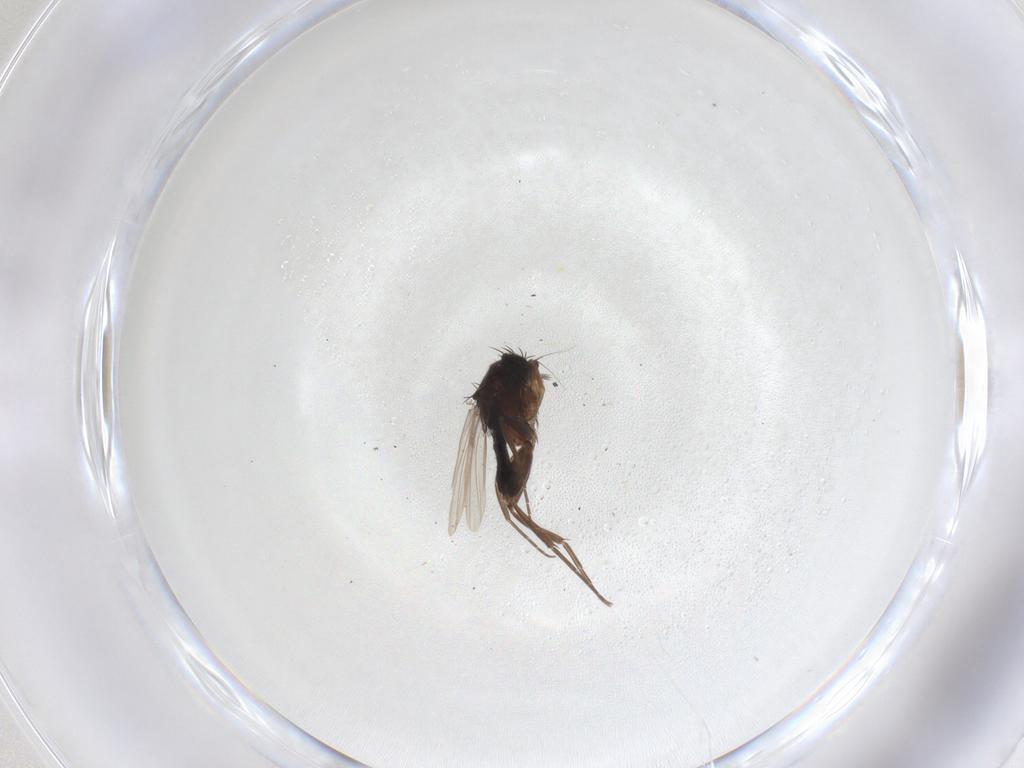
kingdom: Animalia
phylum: Arthropoda
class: Insecta
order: Diptera
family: Phoridae
